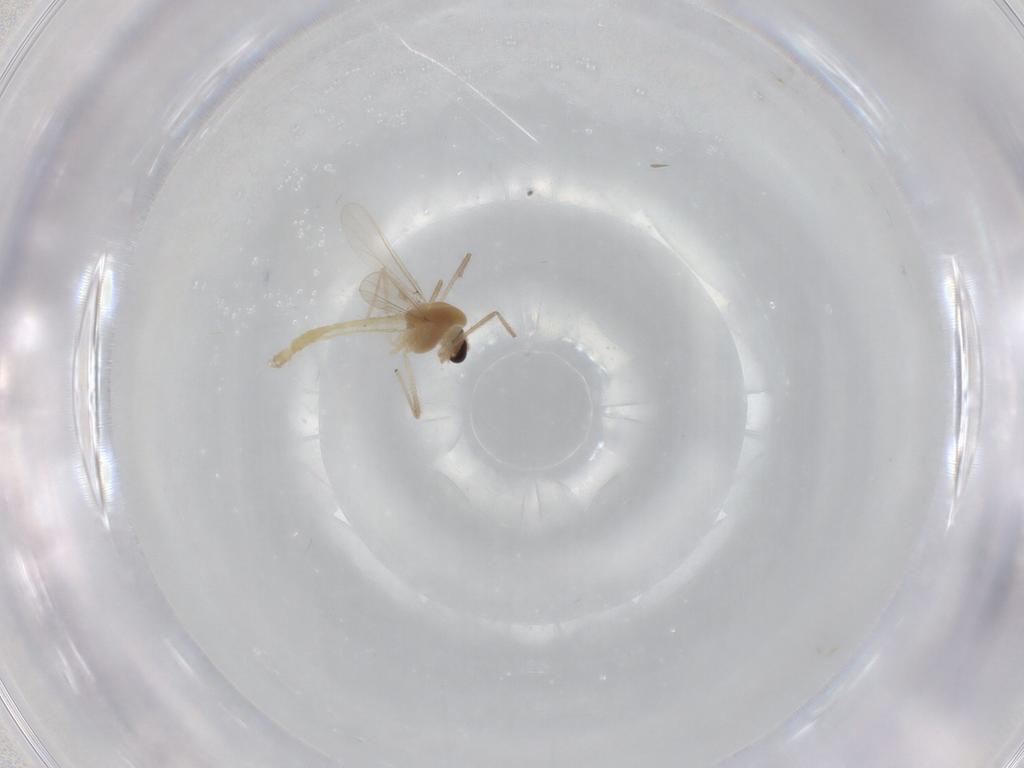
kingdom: Animalia
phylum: Arthropoda
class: Insecta
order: Diptera
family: Chironomidae
